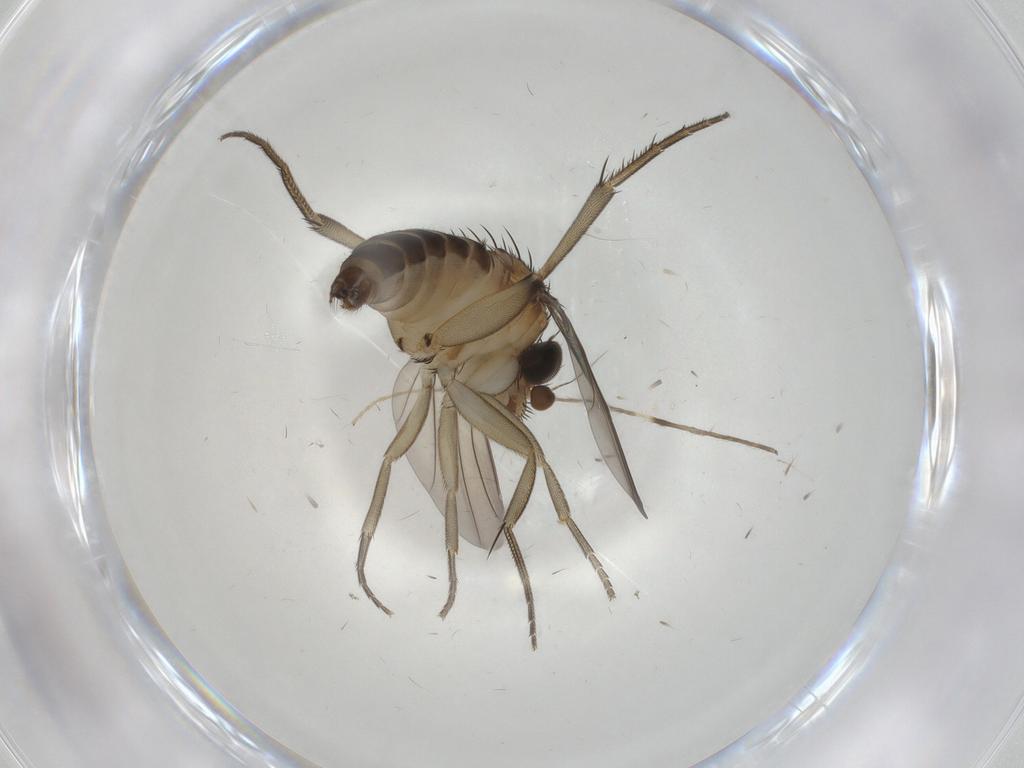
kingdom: Animalia
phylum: Arthropoda
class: Insecta
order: Diptera
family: Phoridae
